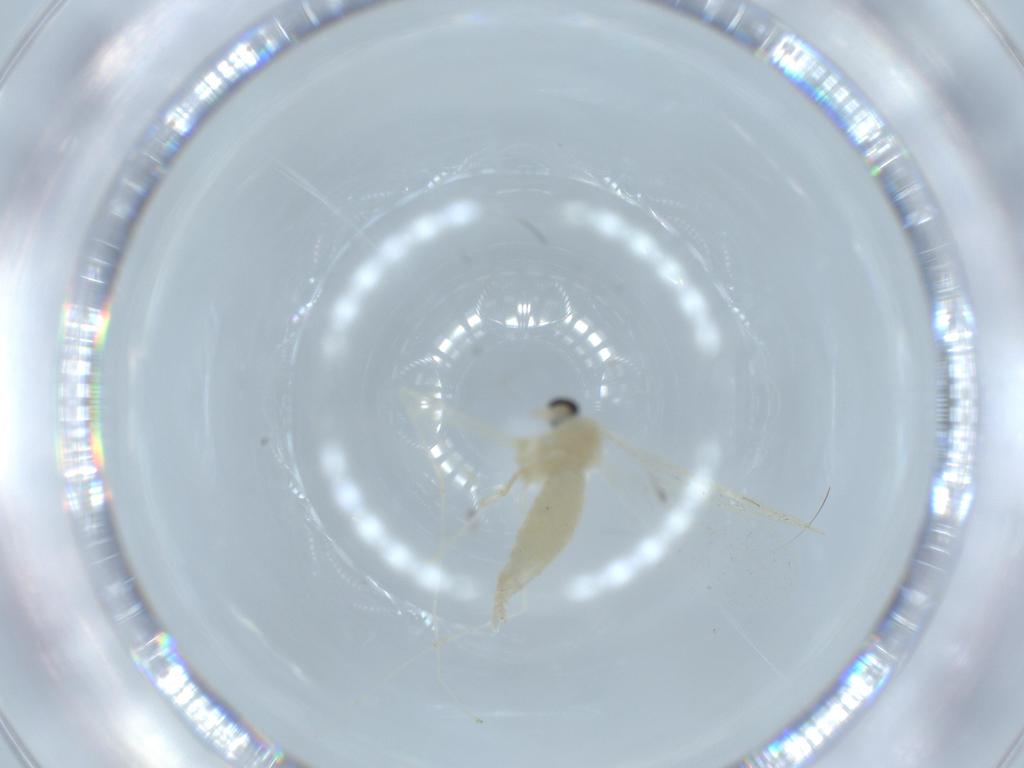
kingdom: Animalia
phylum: Arthropoda
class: Insecta
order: Diptera
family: Cecidomyiidae
